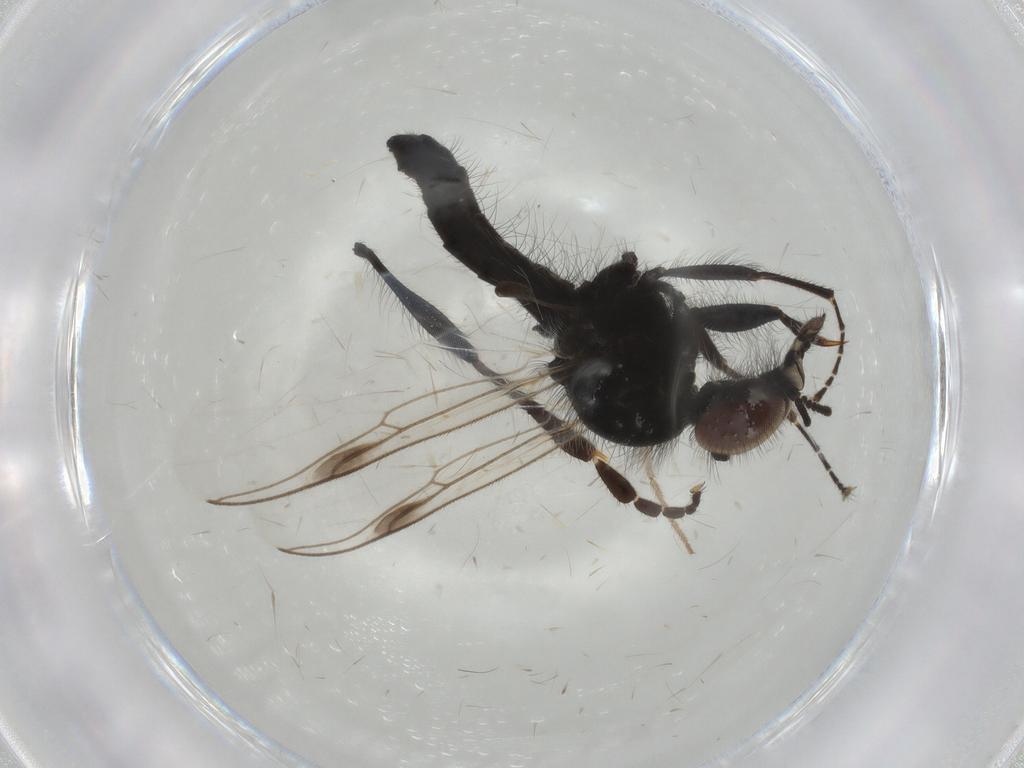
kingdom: Animalia
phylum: Arthropoda
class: Insecta
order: Diptera
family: Bibionidae
